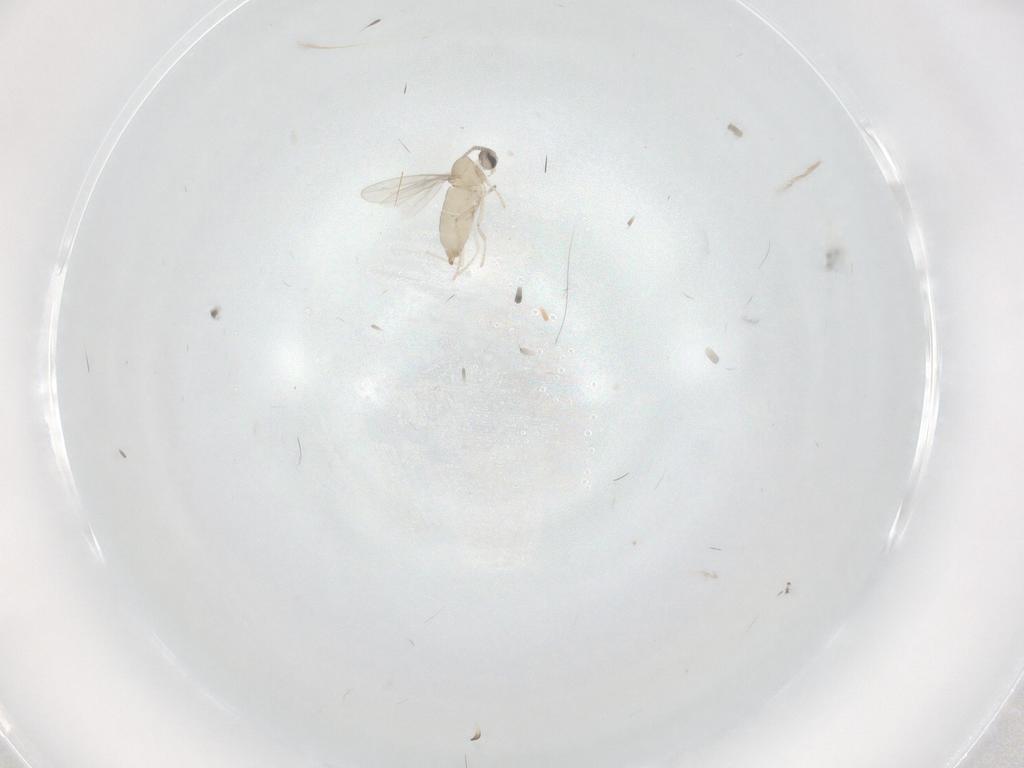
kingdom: Animalia
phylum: Arthropoda
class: Insecta
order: Diptera
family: Cecidomyiidae
